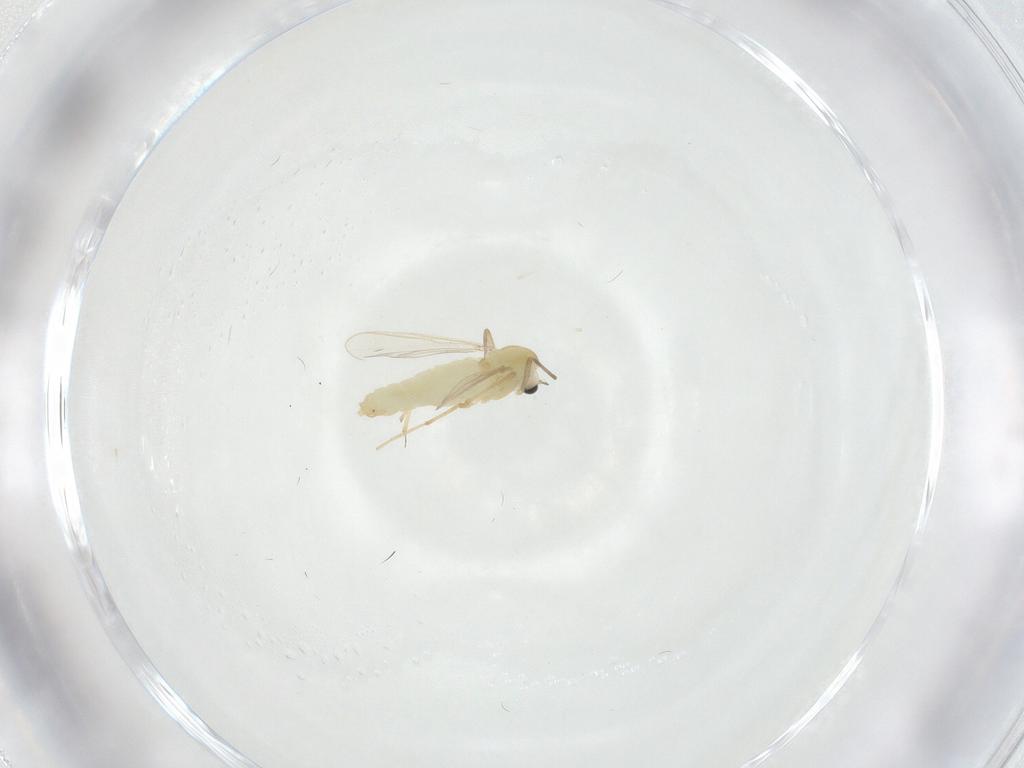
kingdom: Animalia
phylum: Arthropoda
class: Insecta
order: Diptera
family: Chironomidae
